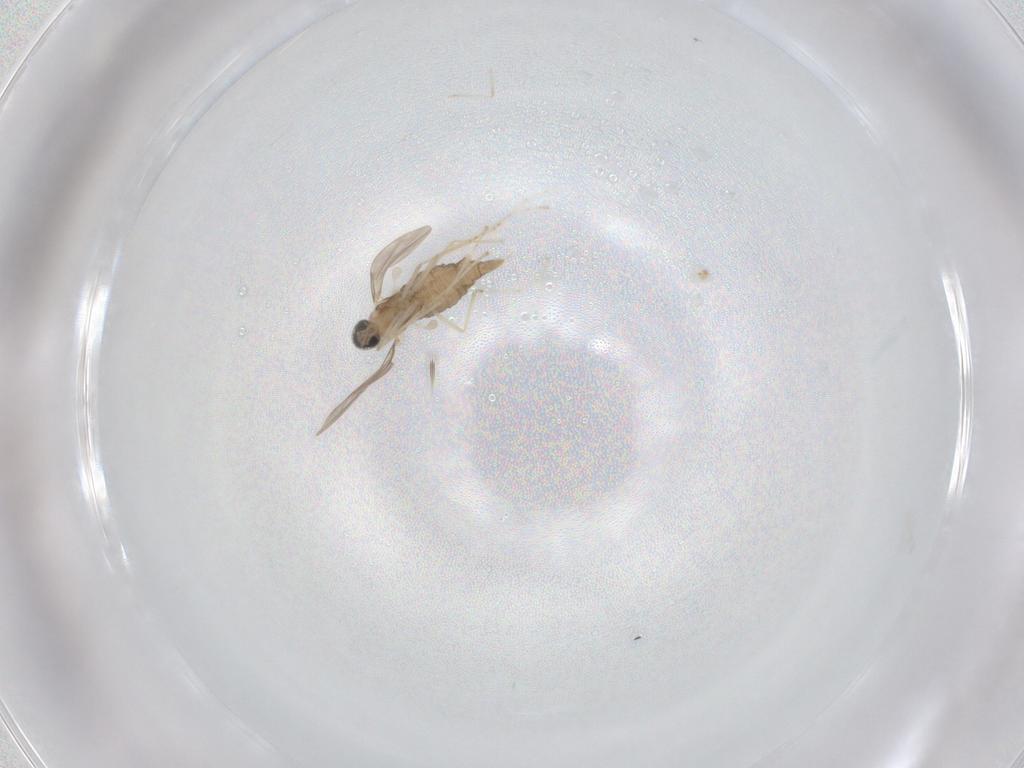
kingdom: Animalia
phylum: Arthropoda
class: Insecta
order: Diptera
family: Cecidomyiidae
